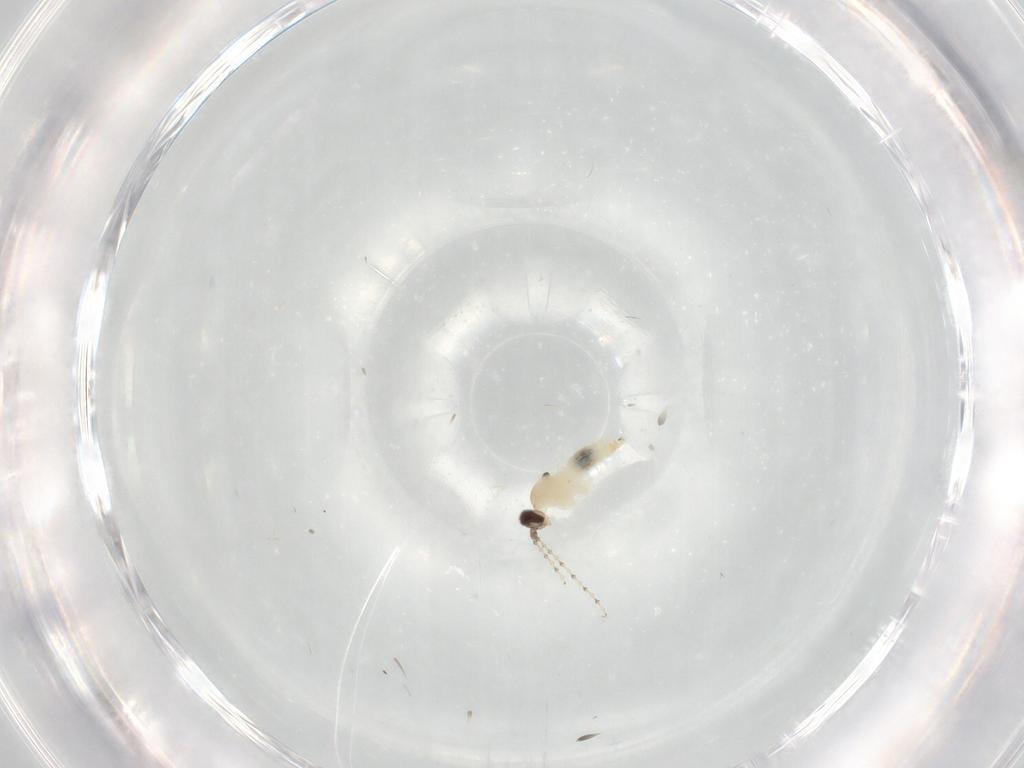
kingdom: Animalia
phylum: Arthropoda
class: Insecta
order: Diptera
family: Cecidomyiidae
